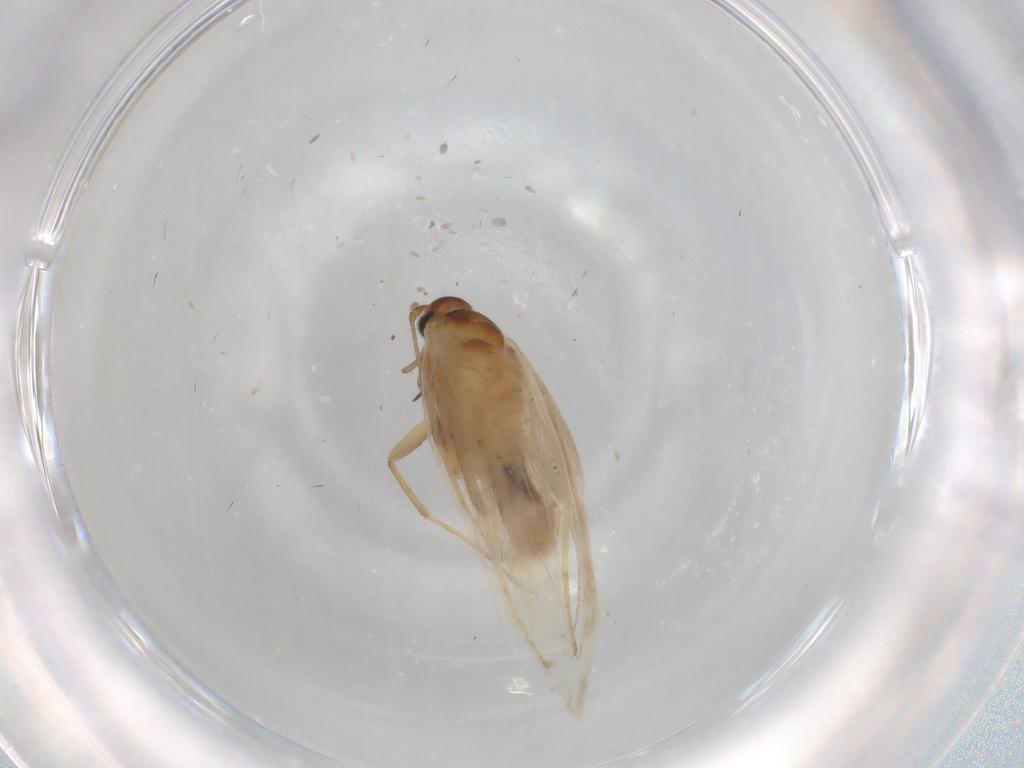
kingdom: Animalia
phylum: Arthropoda
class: Insecta
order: Lepidoptera
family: Gelechiidae
